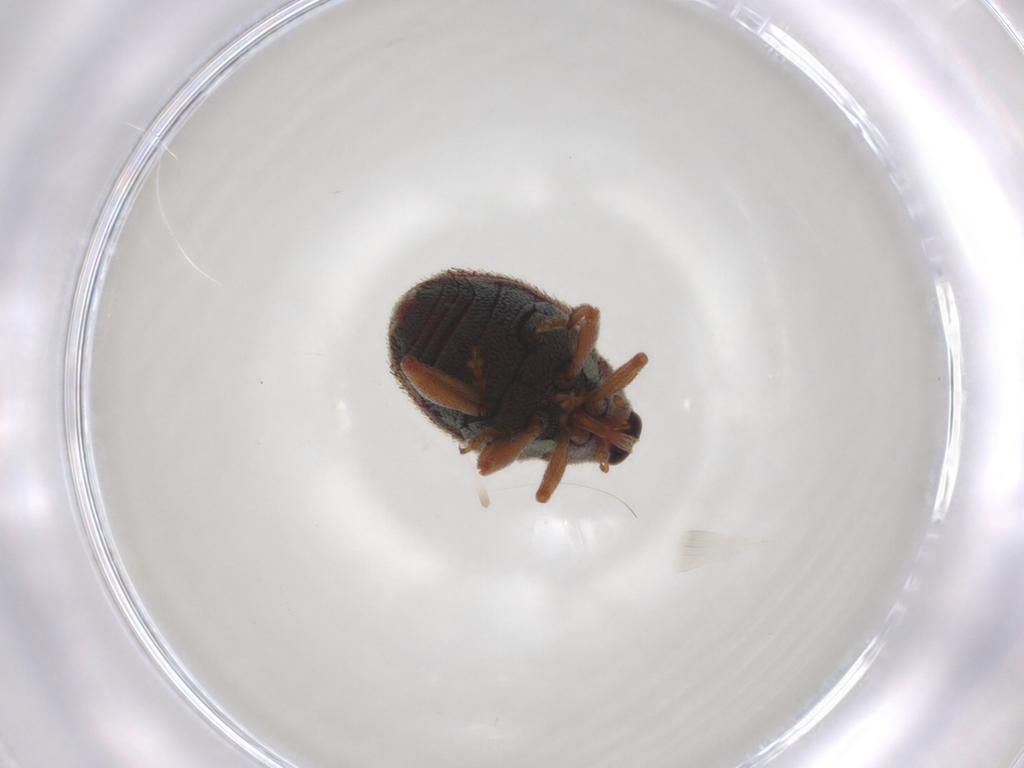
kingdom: Animalia
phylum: Arthropoda
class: Insecta
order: Coleoptera
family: Curculionidae
